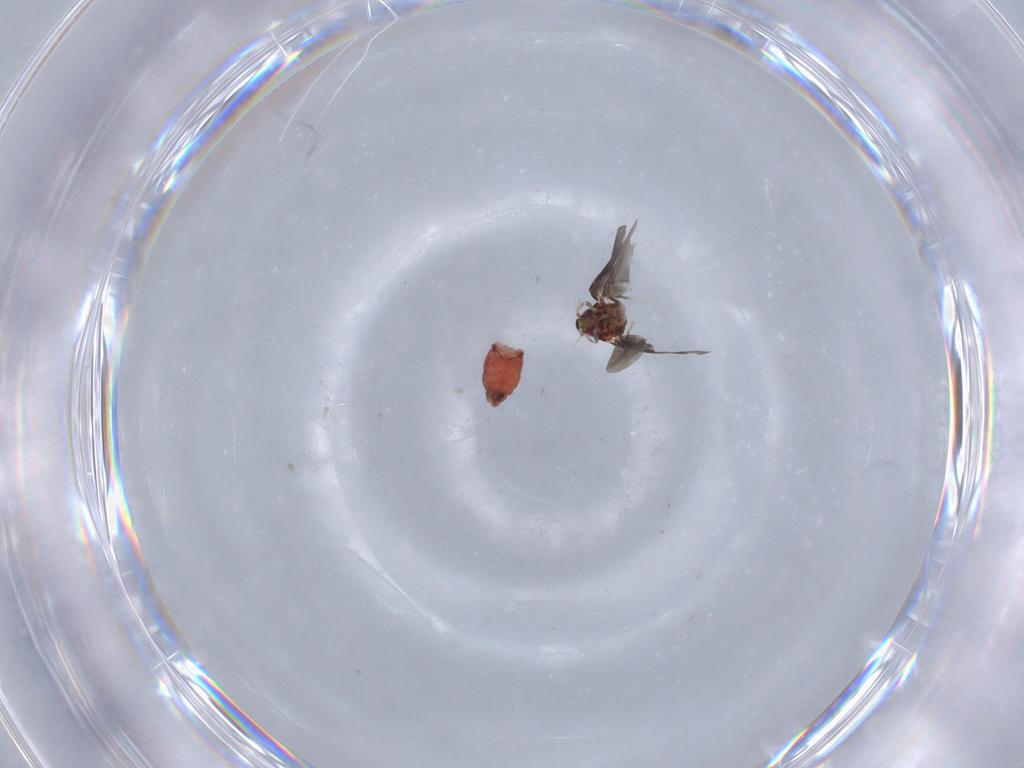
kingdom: Animalia
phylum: Arthropoda
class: Insecta
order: Hemiptera
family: Aleyrodidae
